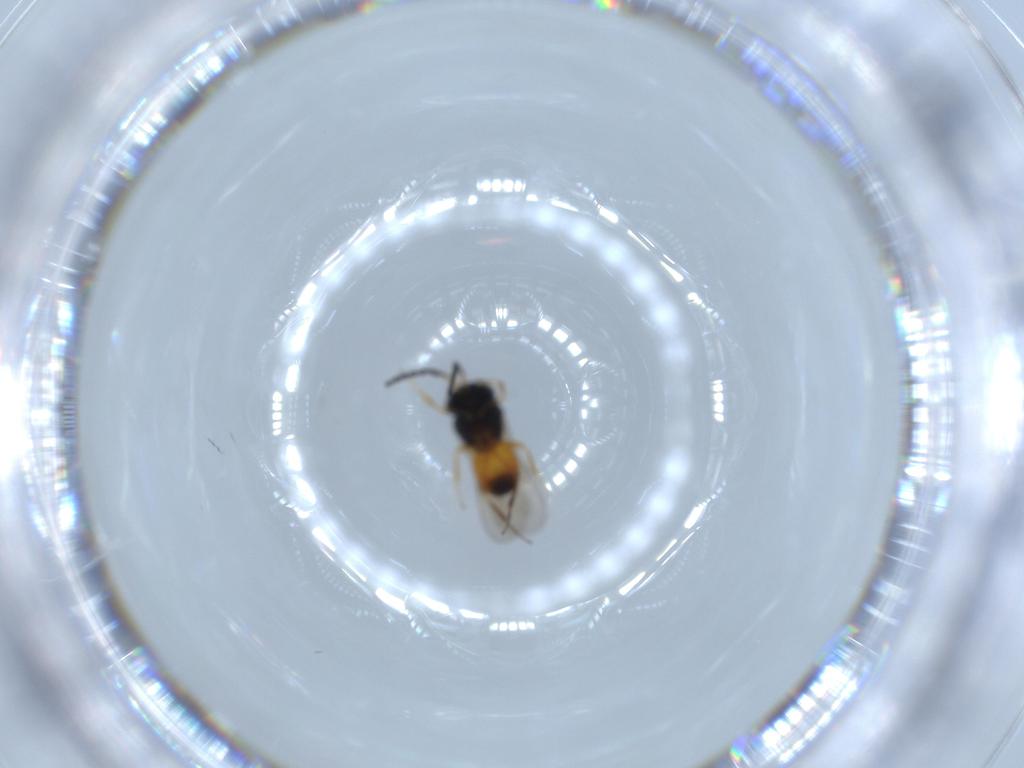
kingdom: Animalia
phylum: Arthropoda
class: Insecta
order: Hymenoptera
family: Scelionidae
